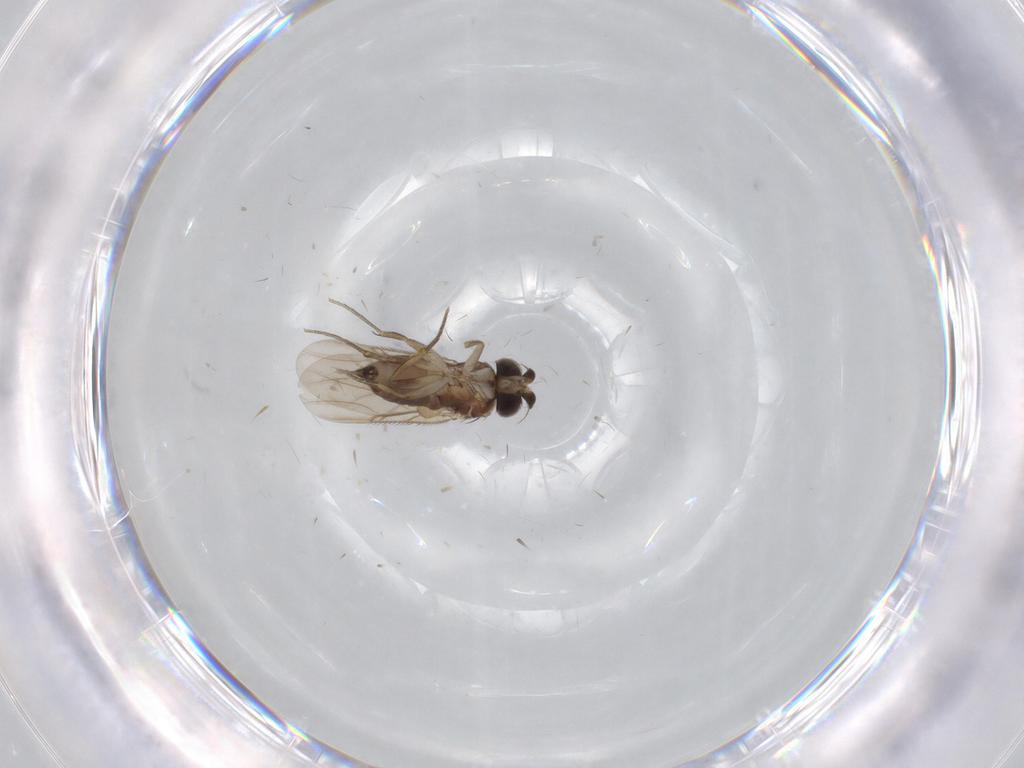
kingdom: Animalia
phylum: Arthropoda
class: Insecta
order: Diptera
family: Phoridae
